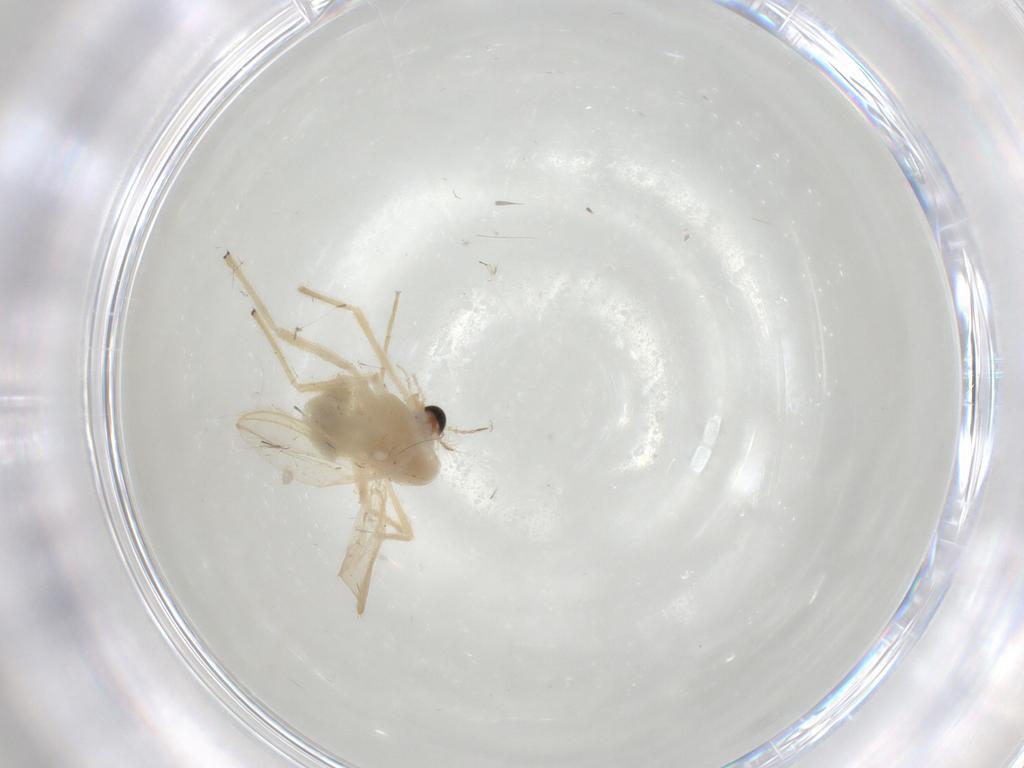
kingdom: Animalia
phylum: Arthropoda
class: Insecta
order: Diptera
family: Chironomidae
